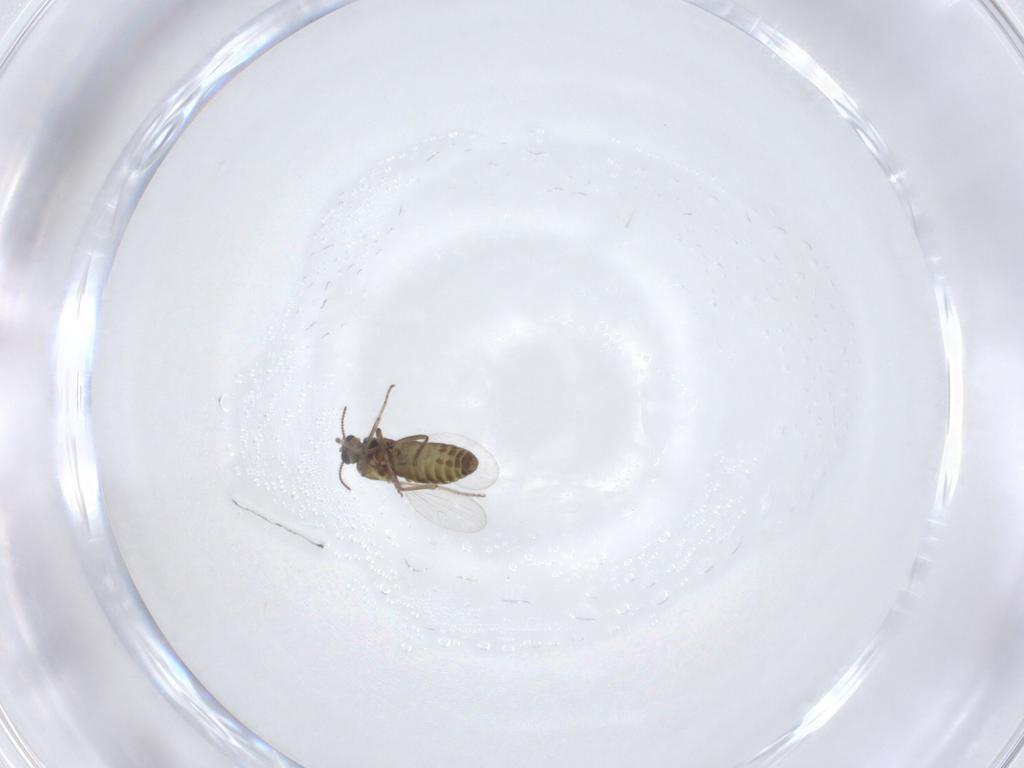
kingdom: Animalia
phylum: Arthropoda
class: Insecta
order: Diptera
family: Ceratopogonidae
